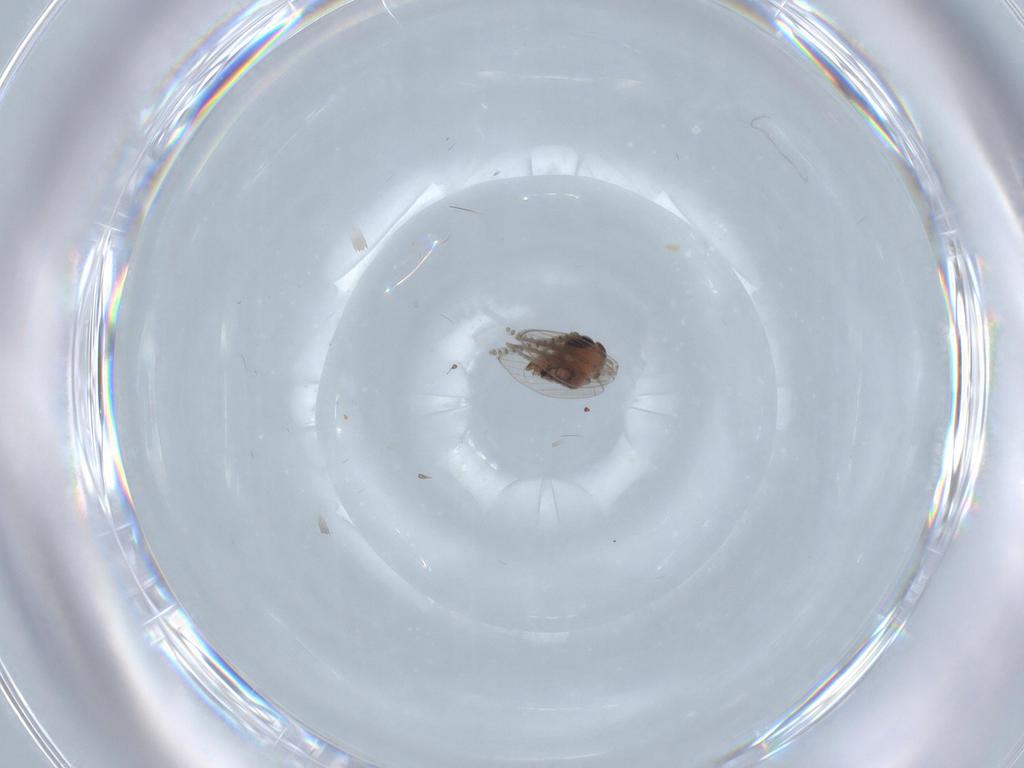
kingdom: Animalia
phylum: Arthropoda
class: Insecta
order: Diptera
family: Psychodidae
